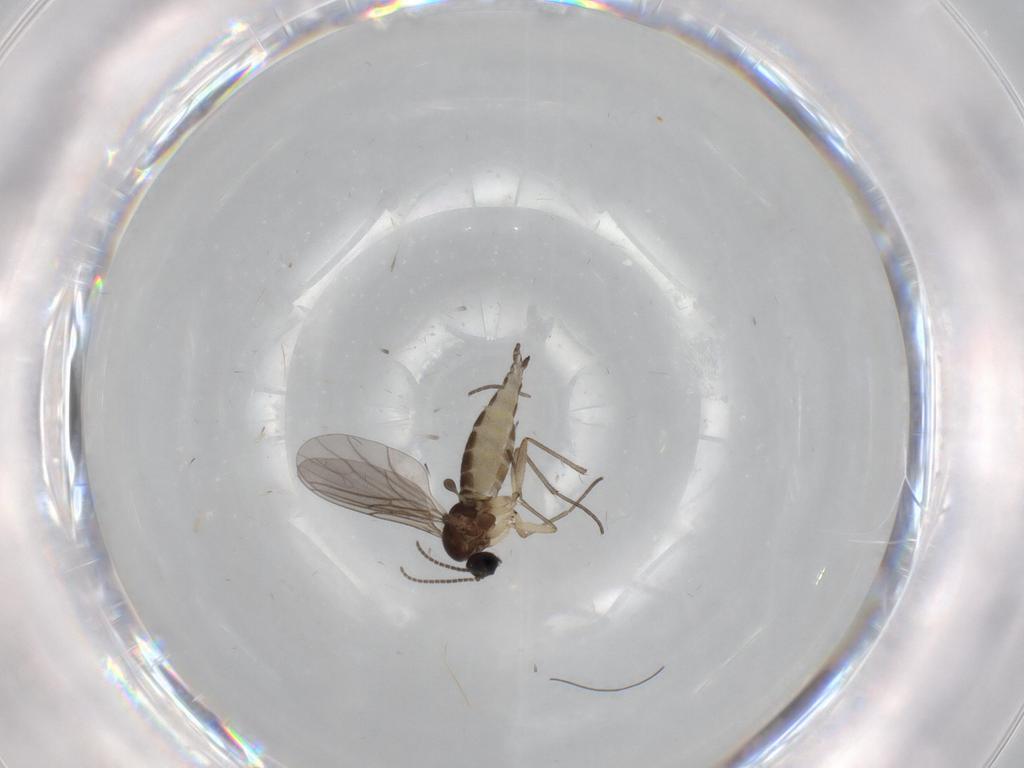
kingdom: Animalia
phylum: Arthropoda
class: Insecta
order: Diptera
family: Sciaridae
